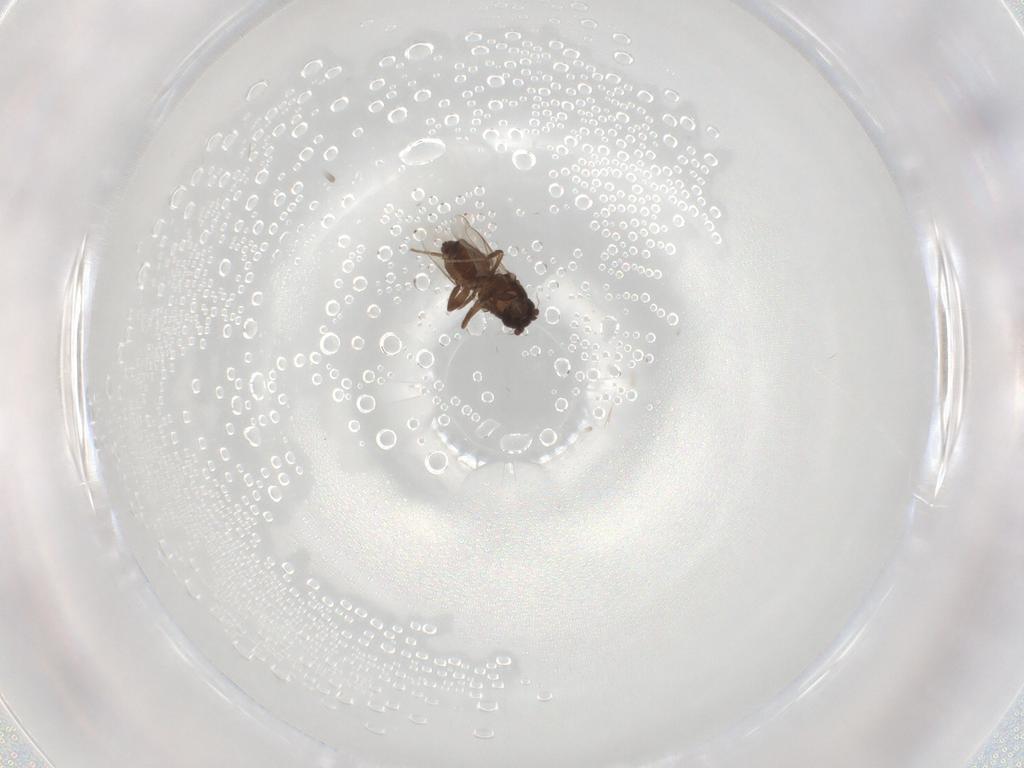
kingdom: Animalia
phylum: Arthropoda
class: Insecta
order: Diptera
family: Sphaeroceridae
